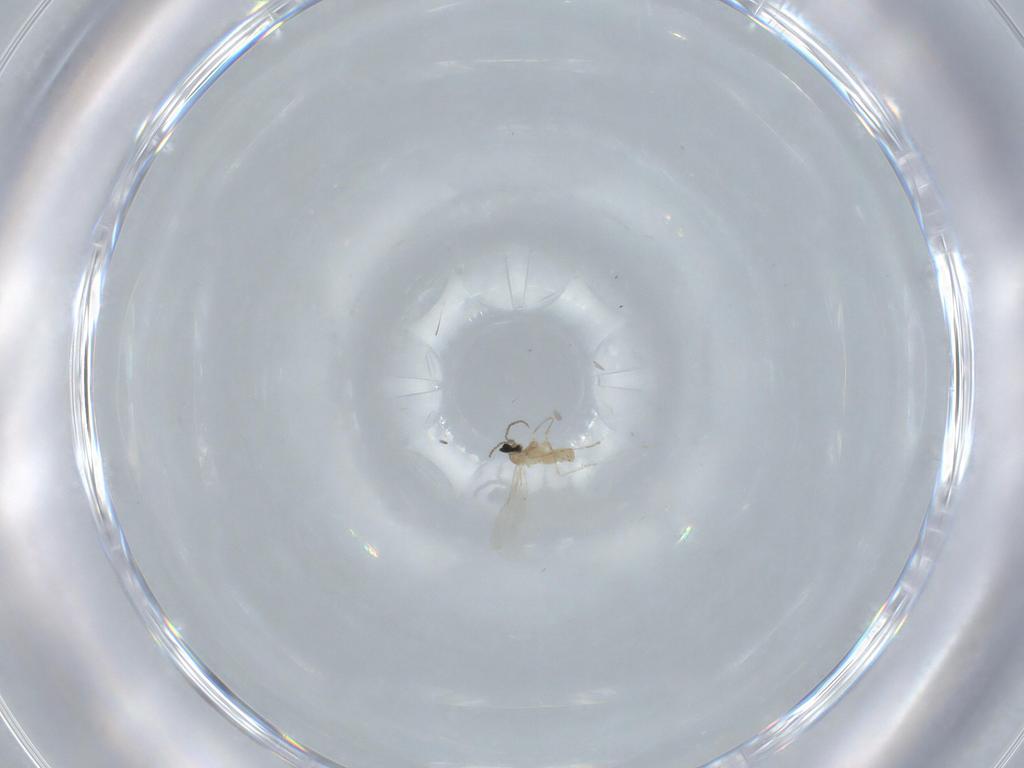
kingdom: Animalia
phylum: Arthropoda
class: Insecta
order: Diptera
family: Cecidomyiidae
